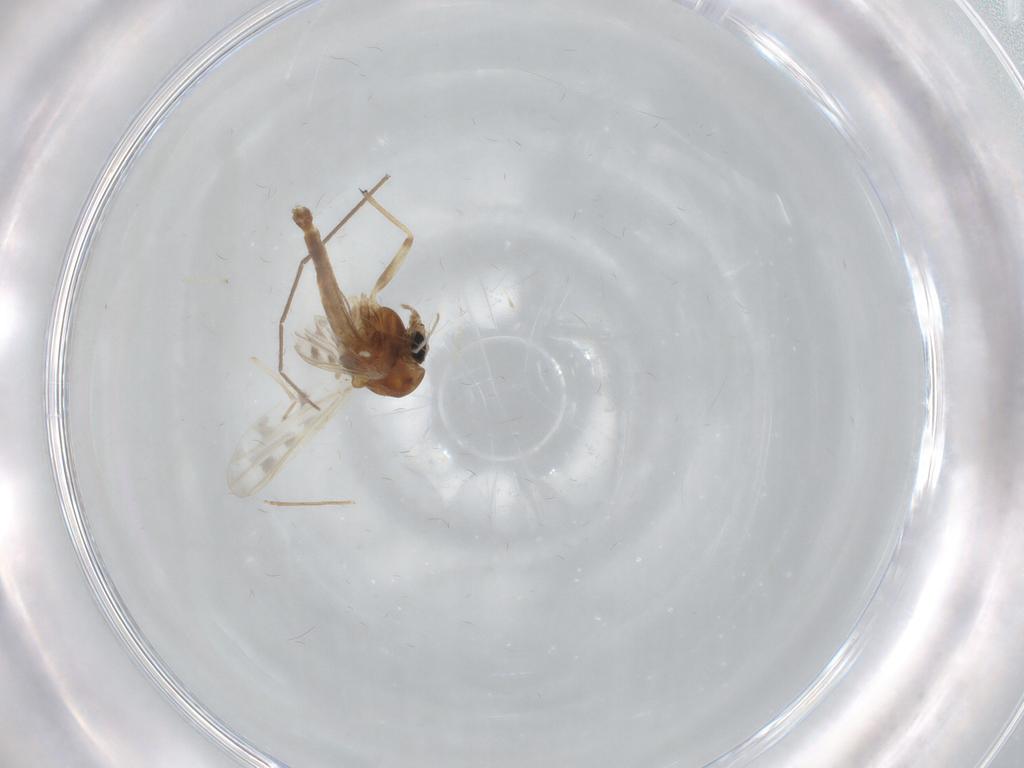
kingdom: Animalia
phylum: Arthropoda
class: Insecta
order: Diptera
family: Chironomidae
